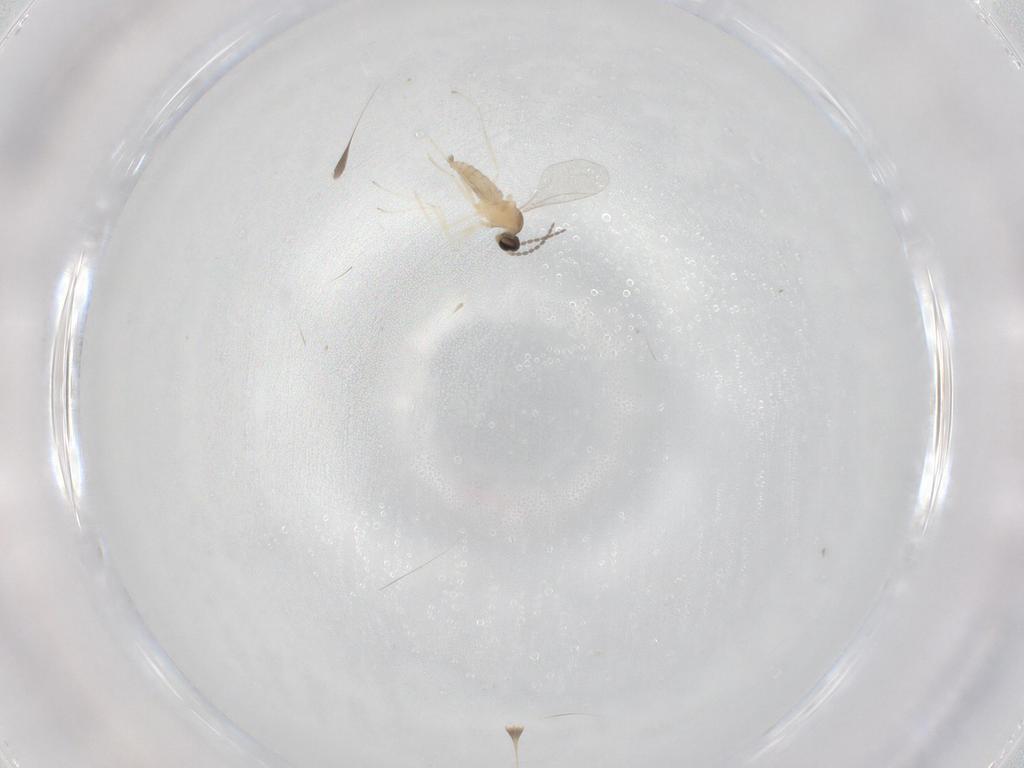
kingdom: Animalia
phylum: Arthropoda
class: Insecta
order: Diptera
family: Cecidomyiidae
